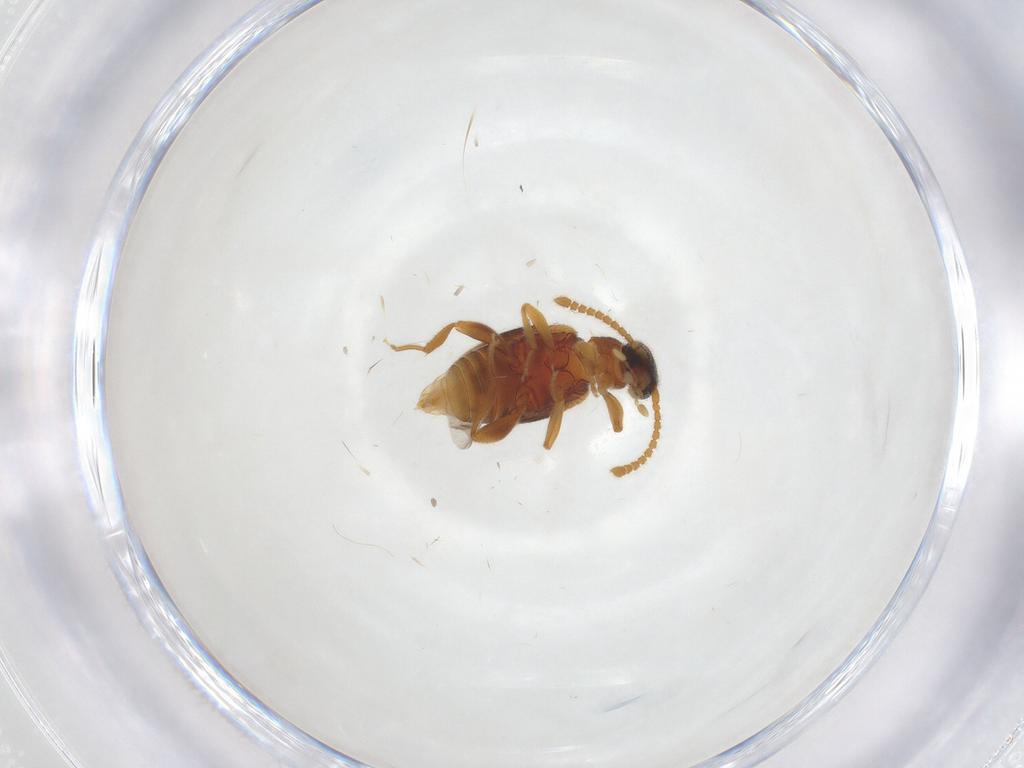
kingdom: Animalia
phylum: Arthropoda
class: Insecta
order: Coleoptera
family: Aderidae
